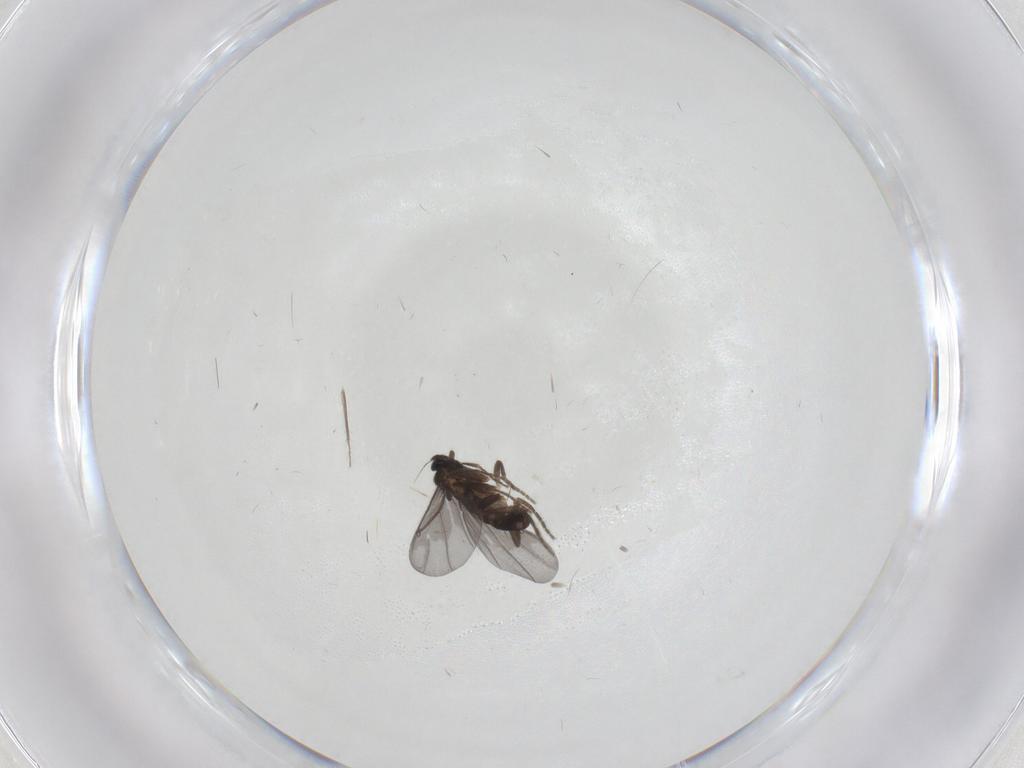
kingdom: Animalia
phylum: Arthropoda
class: Insecta
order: Diptera
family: Phoridae
